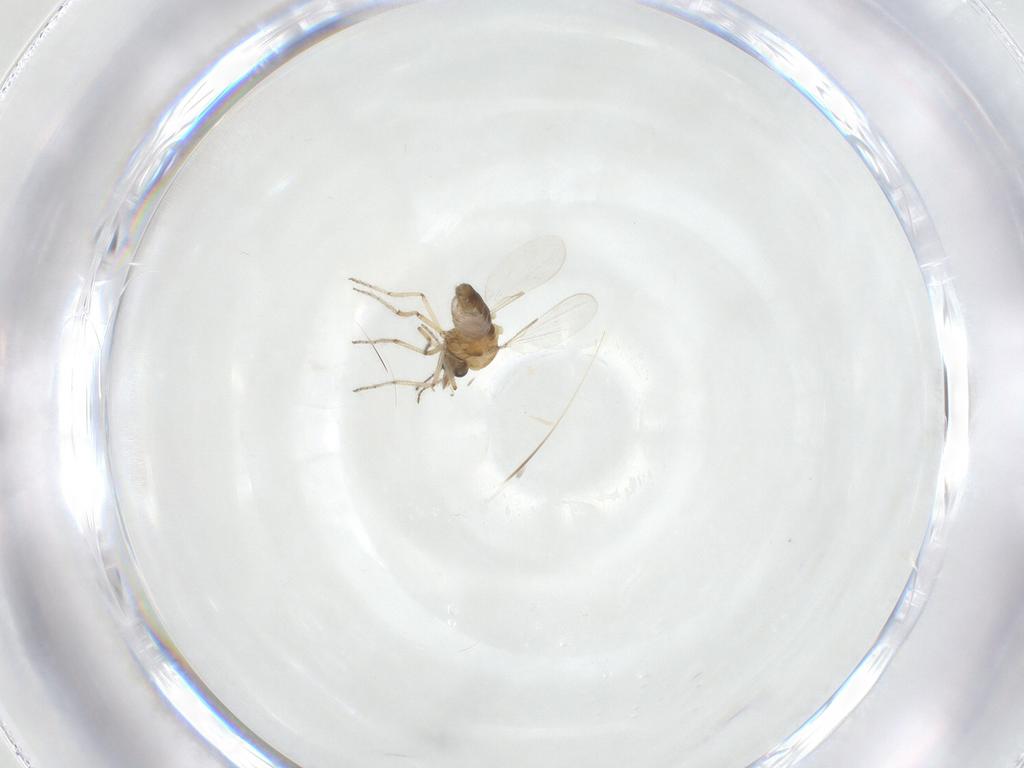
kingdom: Animalia
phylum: Arthropoda
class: Insecta
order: Diptera
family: Ceratopogonidae
